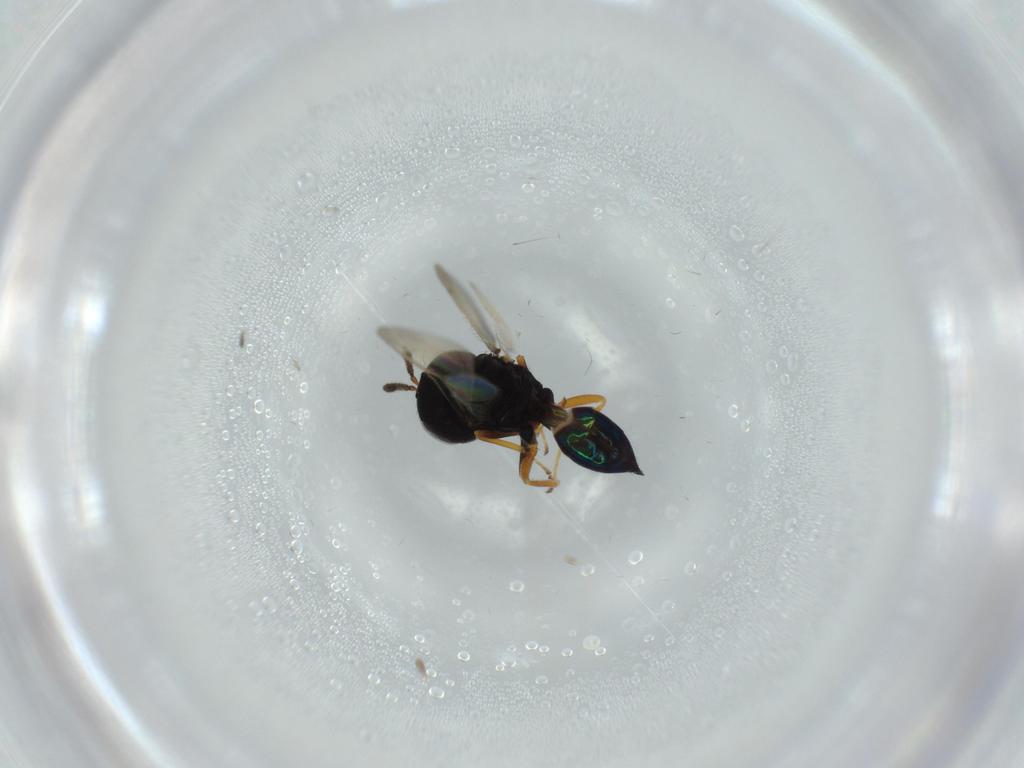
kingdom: Animalia
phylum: Arthropoda
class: Insecta
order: Hymenoptera
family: Pteromalidae
